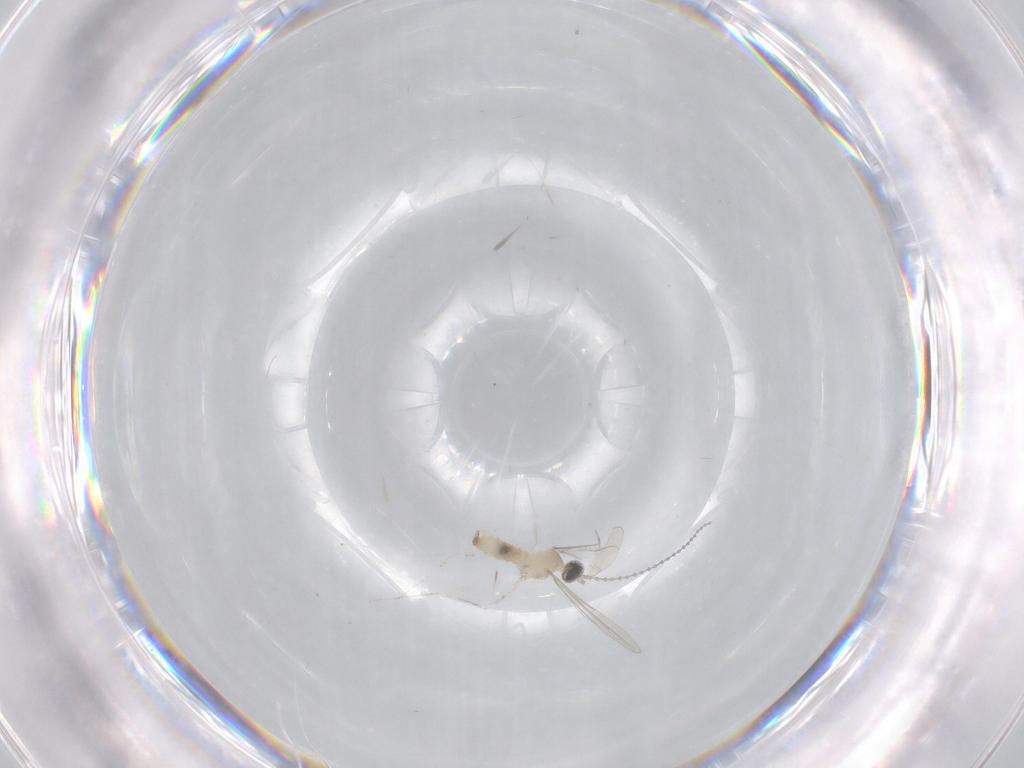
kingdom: Animalia
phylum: Arthropoda
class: Insecta
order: Diptera
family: Cecidomyiidae
